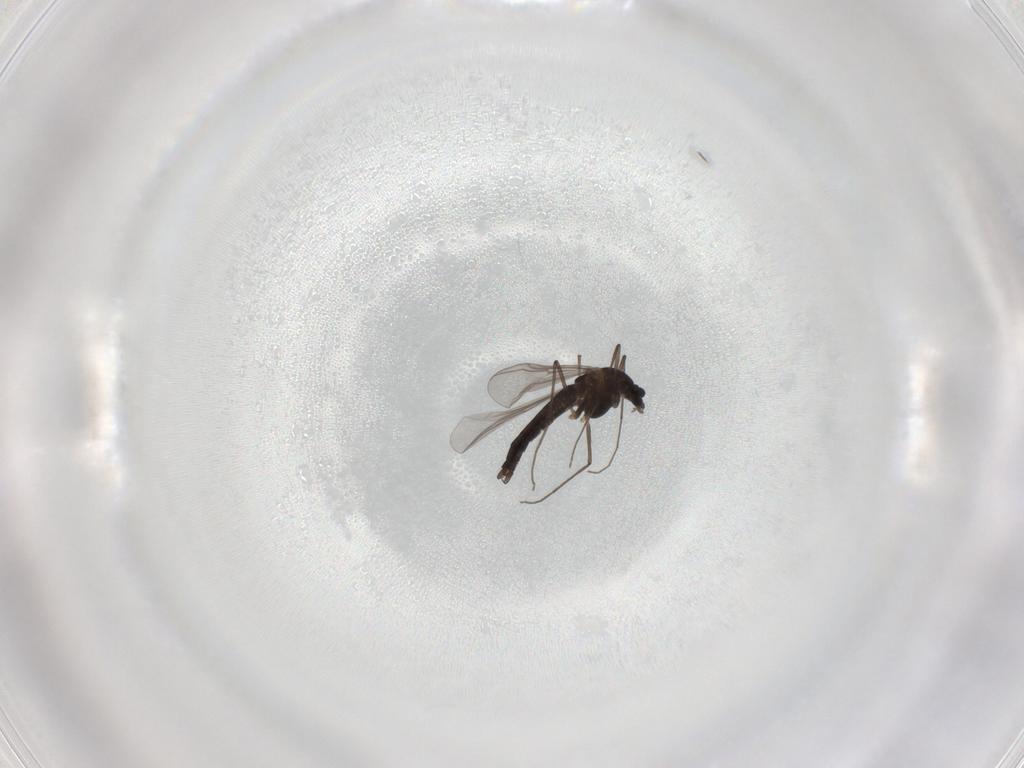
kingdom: Animalia
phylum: Arthropoda
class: Insecta
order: Diptera
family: Chironomidae
